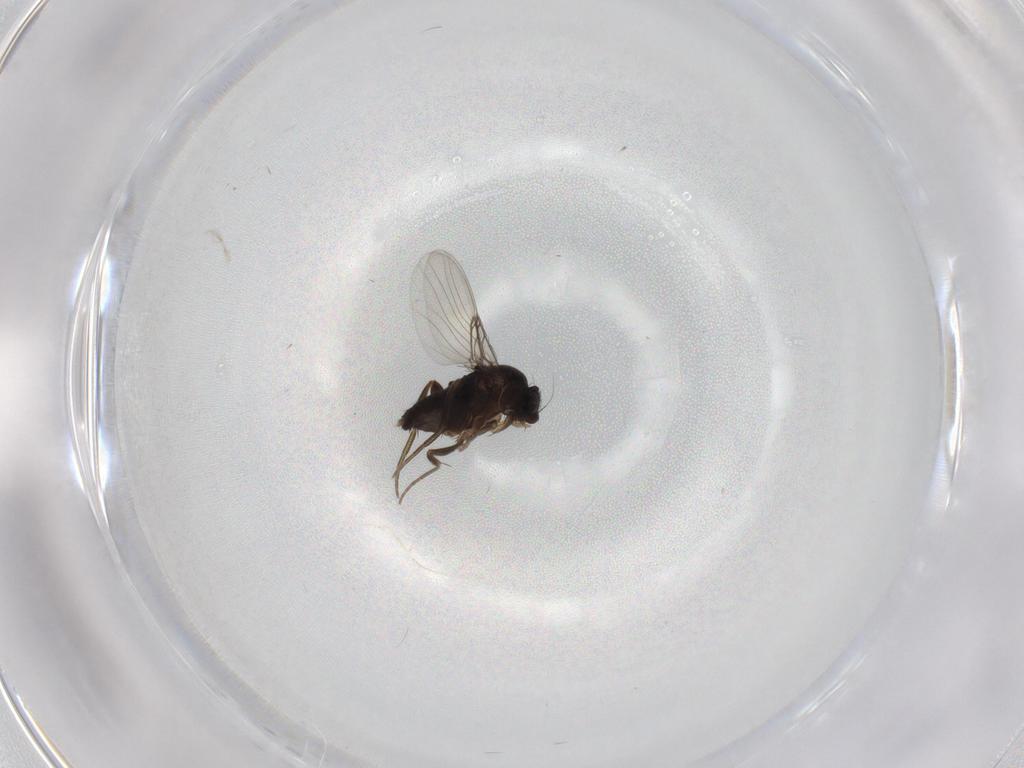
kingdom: Animalia
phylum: Arthropoda
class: Insecta
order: Diptera
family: Phoridae
